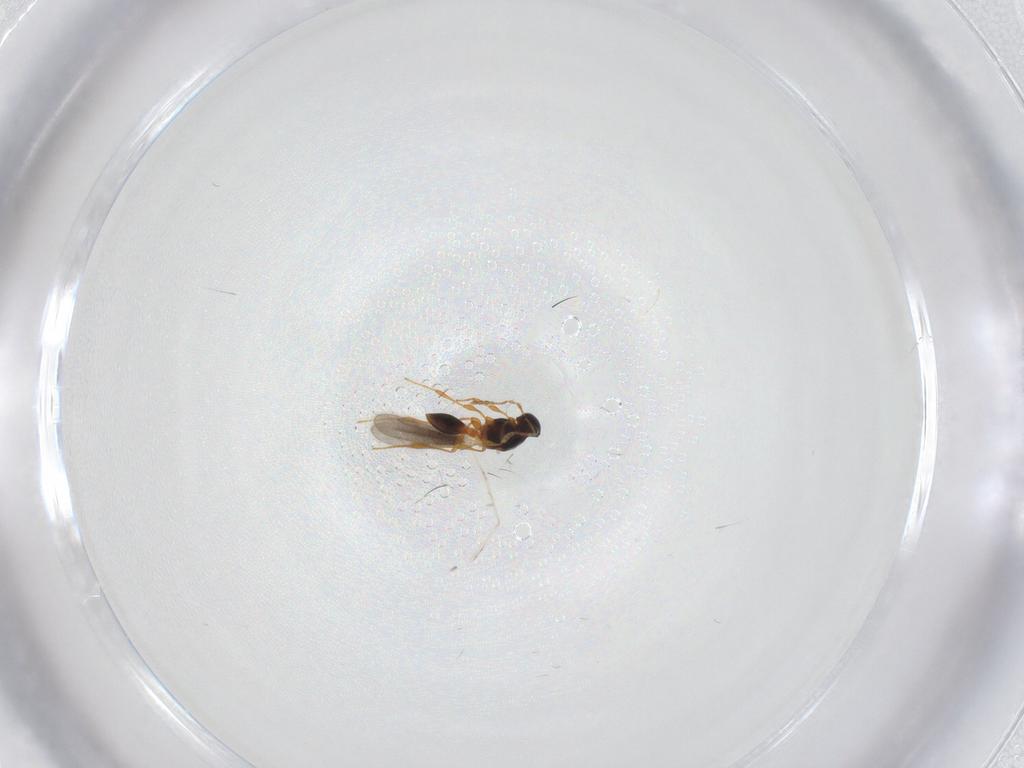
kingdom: Animalia
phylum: Arthropoda
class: Insecta
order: Hymenoptera
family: Platygastridae
